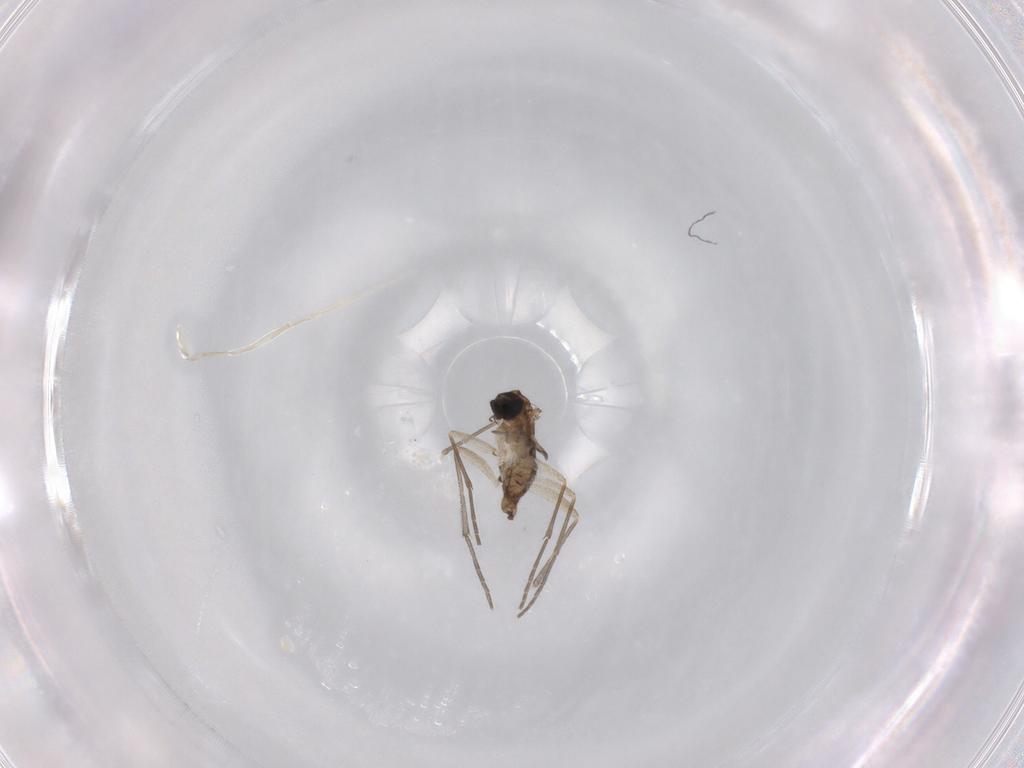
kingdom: Animalia
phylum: Arthropoda
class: Insecta
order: Diptera
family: Sciaridae
